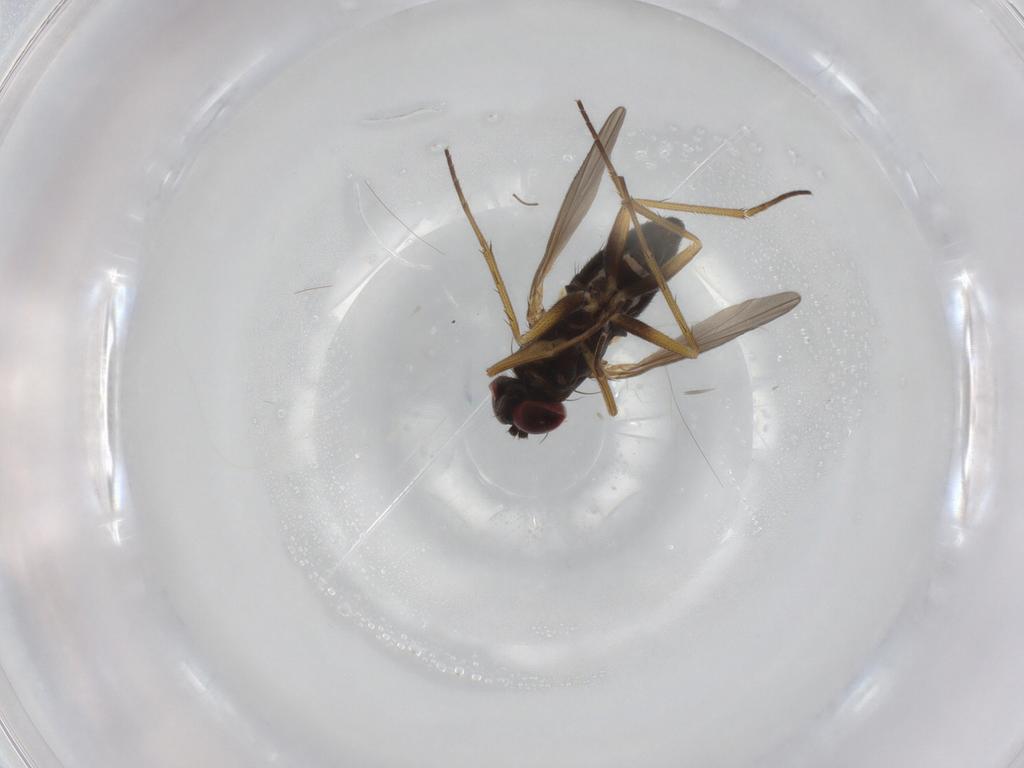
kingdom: Animalia
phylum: Arthropoda
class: Insecta
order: Diptera
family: Dolichopodidae
